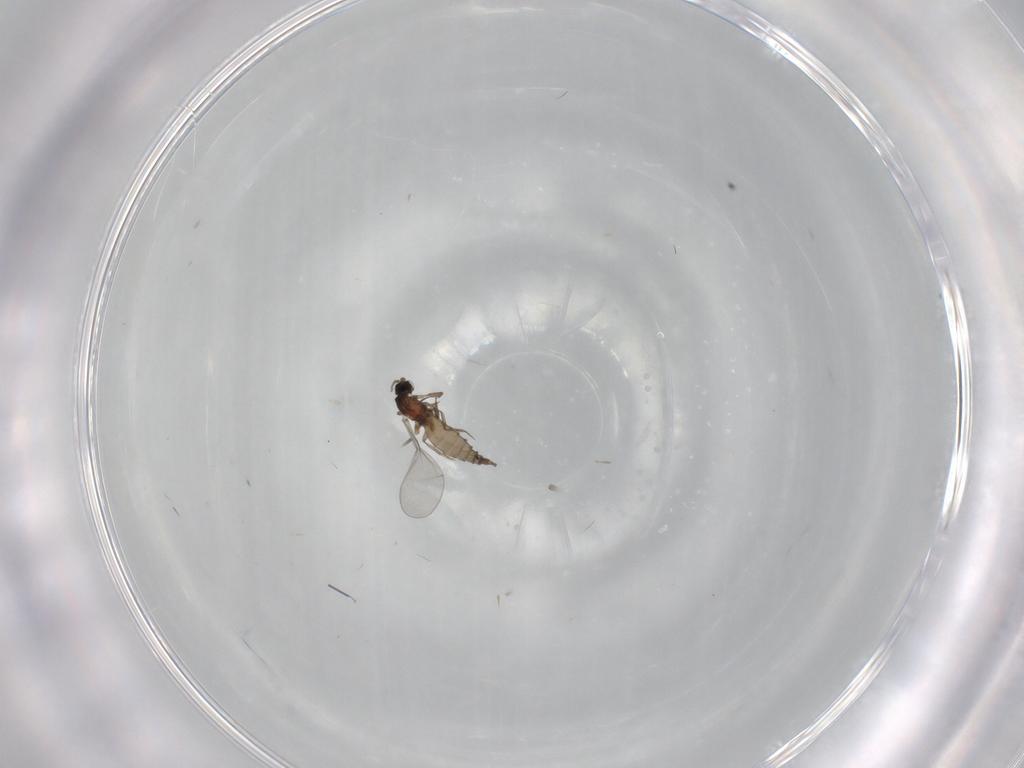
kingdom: Animalia
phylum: Arthropoda
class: Insecta
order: Diptera
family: Cecidomyiidae
